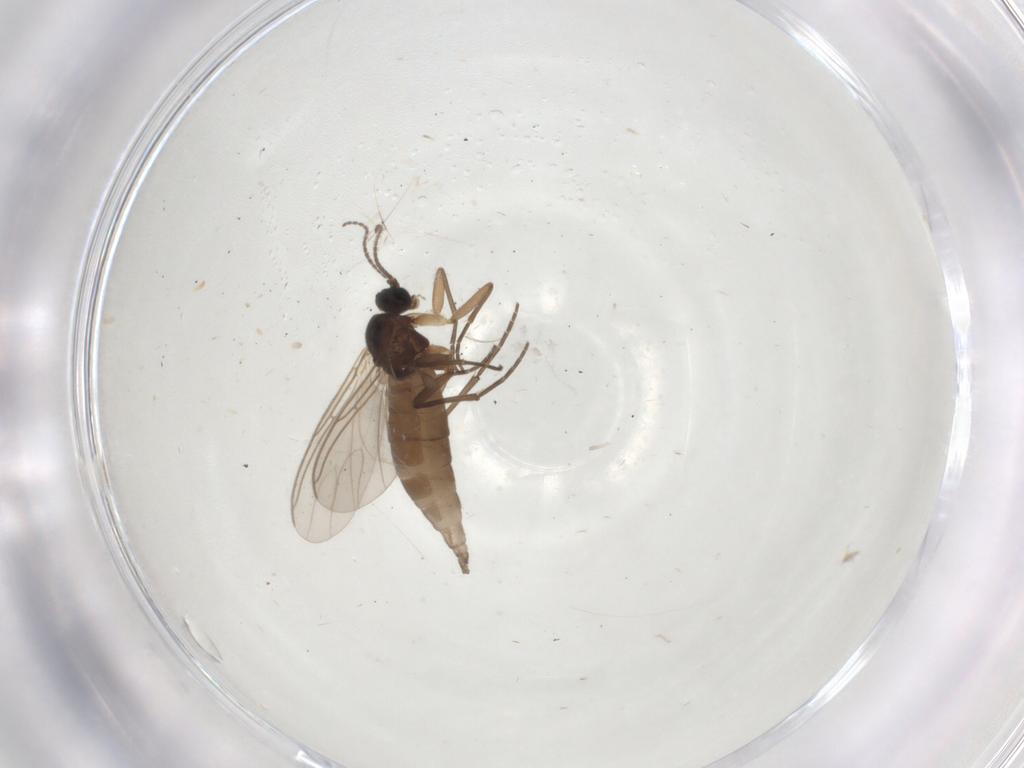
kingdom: Animalia
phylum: Arthropoda
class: Insecta
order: Diptera
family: Sciaridae
